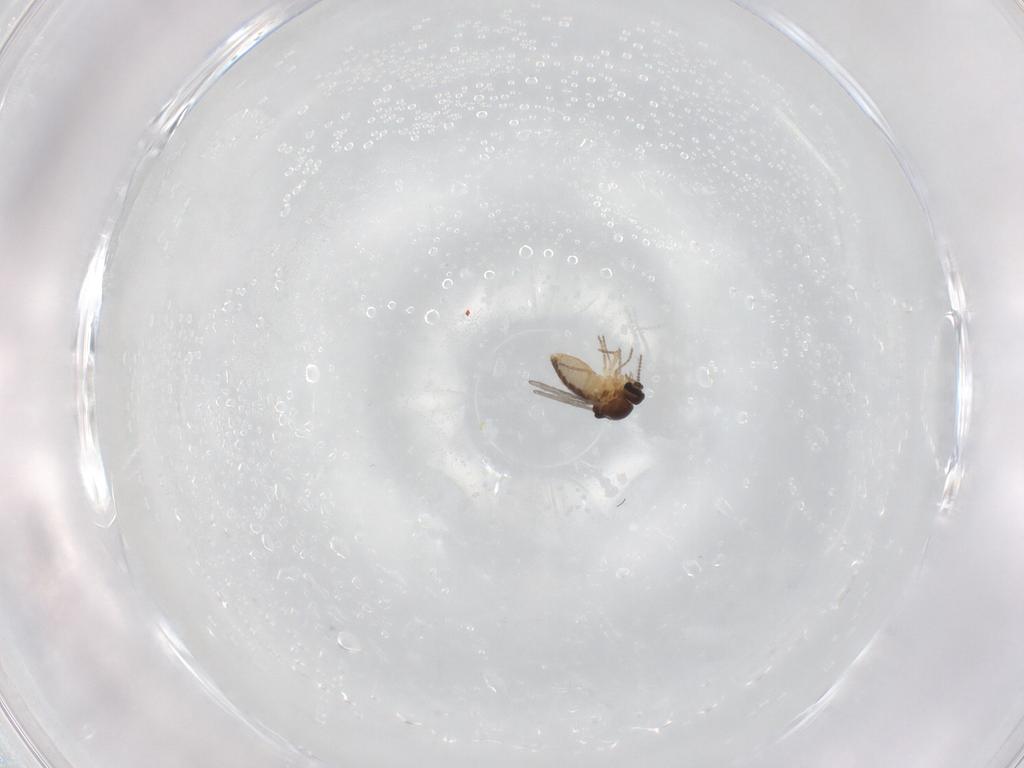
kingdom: Animalia
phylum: Arthropoda
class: Insecta
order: Diptera
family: Ceratopogonidae
